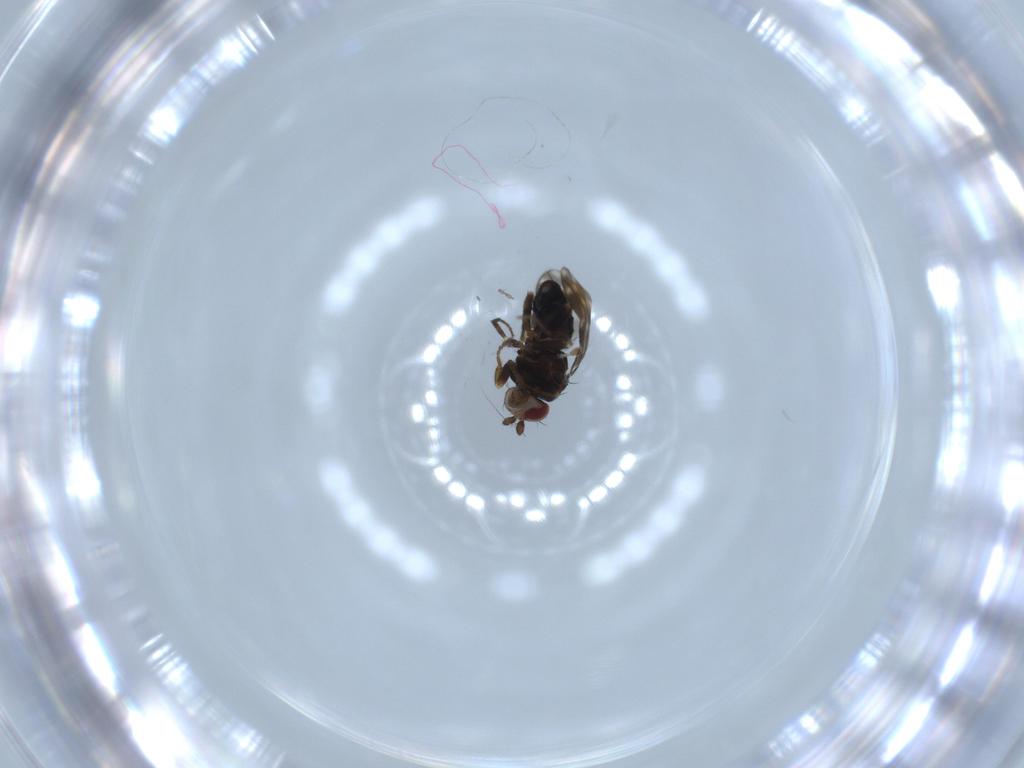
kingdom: Animalia
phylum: Arthropoda
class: Insecta
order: Diptera
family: Sphaeroceridae
